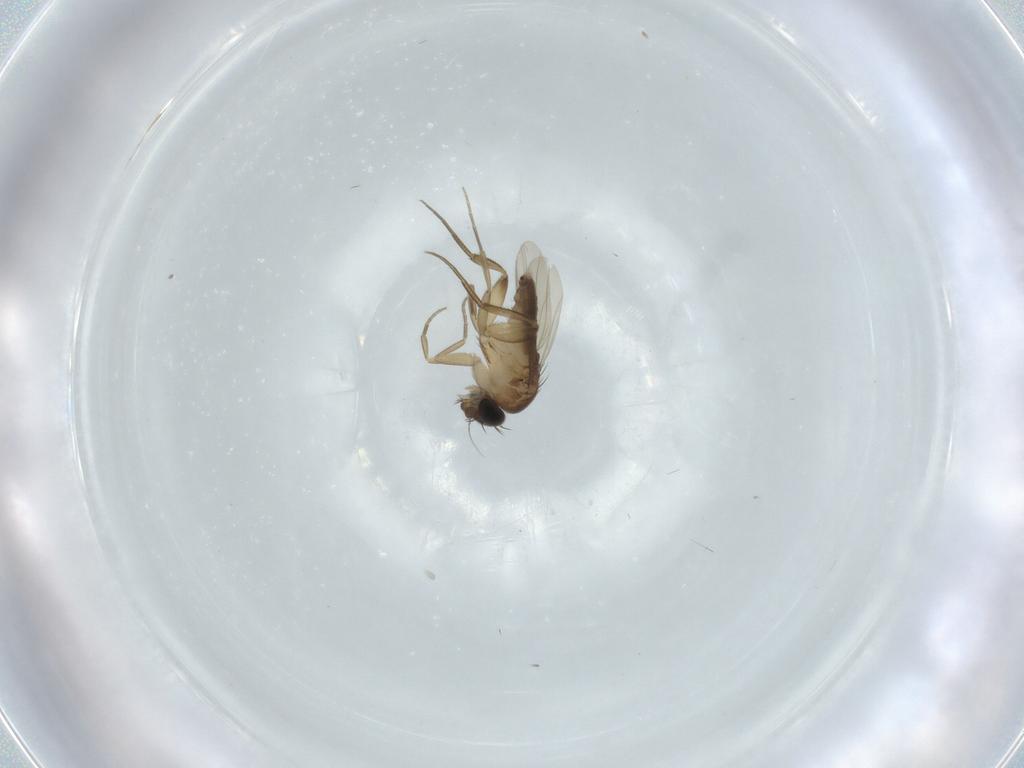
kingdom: Animalia
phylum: Arthropoda
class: Insecta
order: Diptera
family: Phoridae
